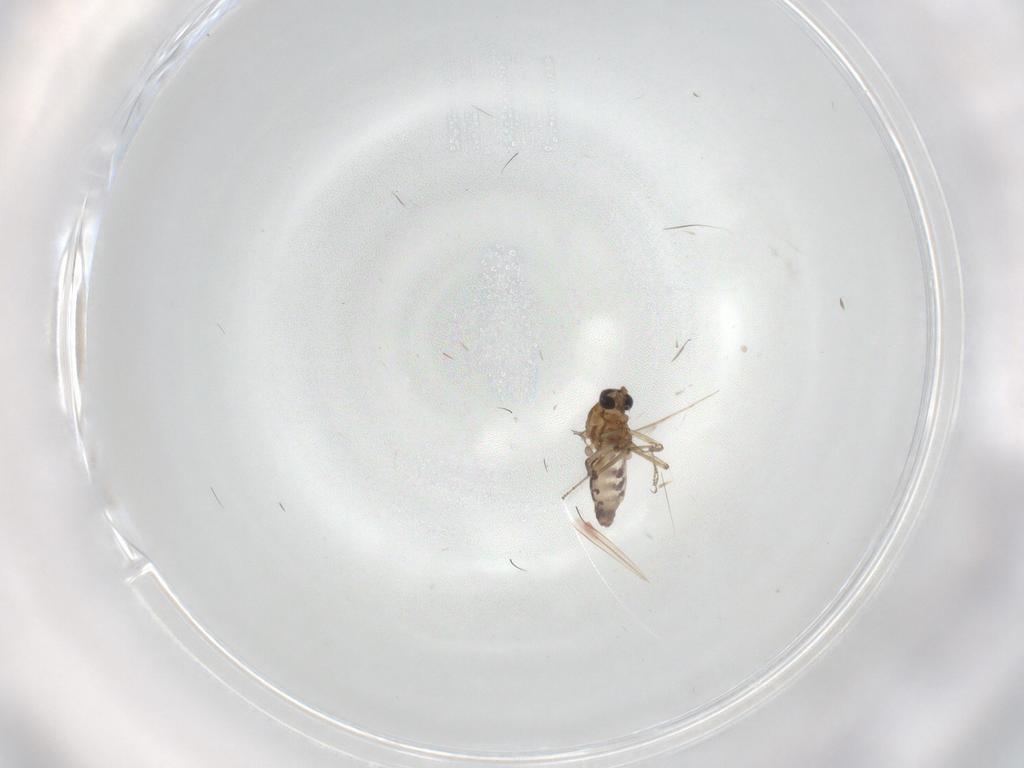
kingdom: Animalia
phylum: Arthropoda
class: Insecta
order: Diptera
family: Ceratopogonidae
